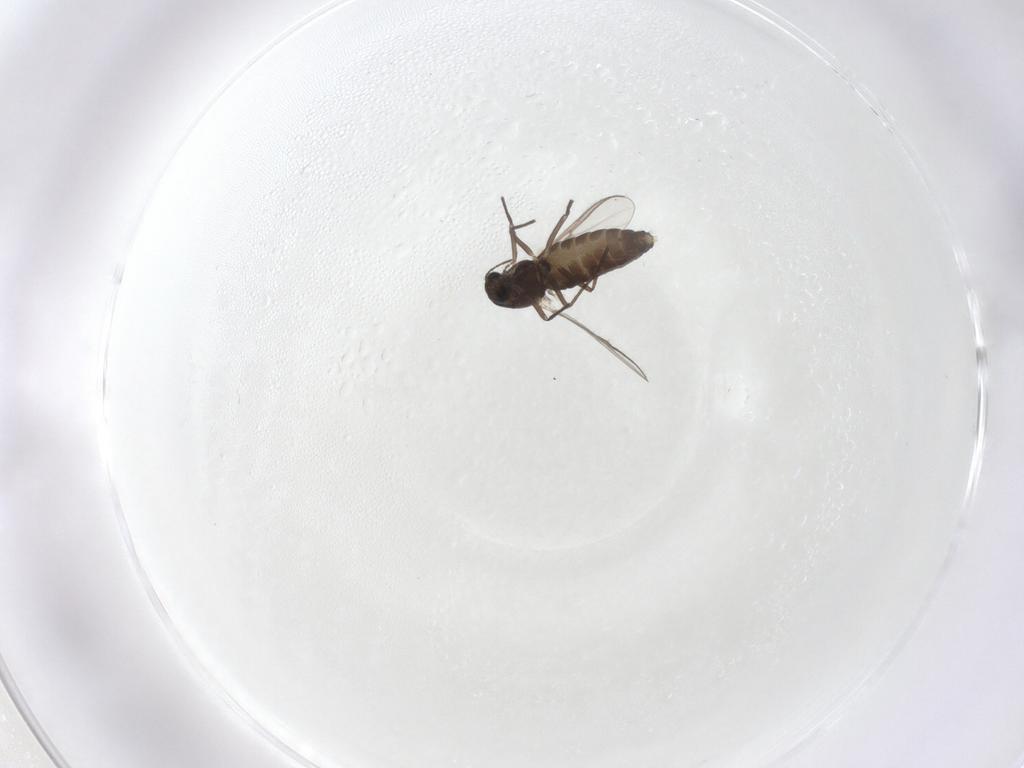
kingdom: Animalia
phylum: Arthropoda
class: Insecta
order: Diptera
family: Chironomidae
